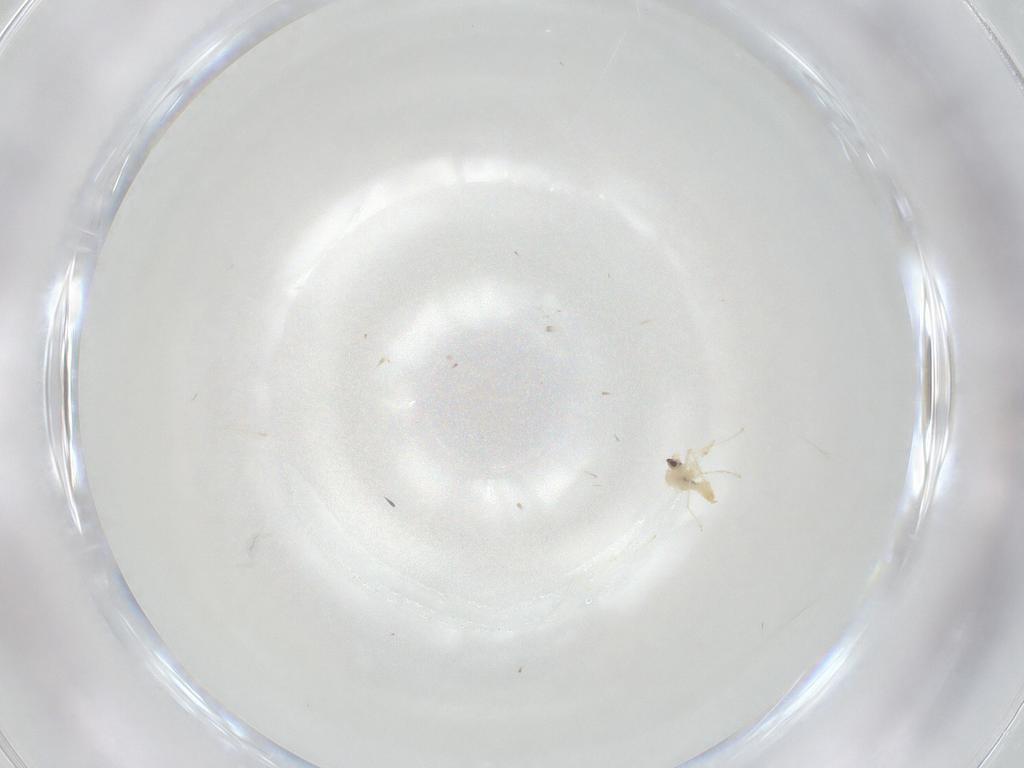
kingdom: Animalia
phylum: Arthropoda
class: Insecta
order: Diptera
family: Cecidomyiidae
